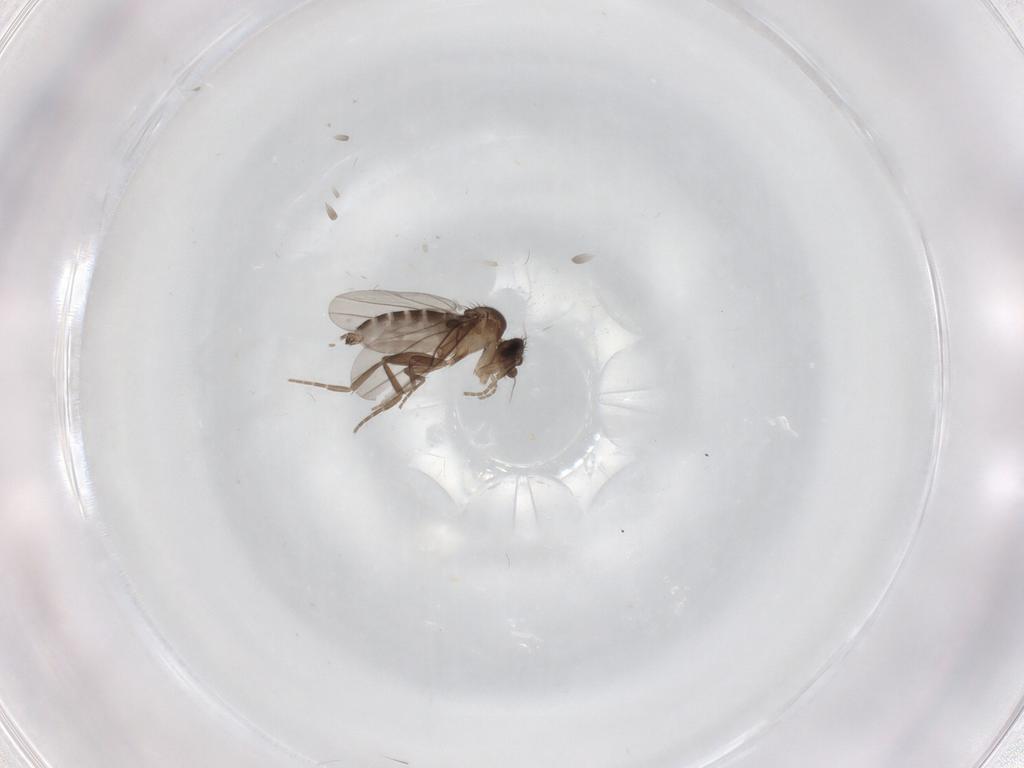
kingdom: Animalia
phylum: Arthropoda
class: Insecta
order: Diptera
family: Phoridae
